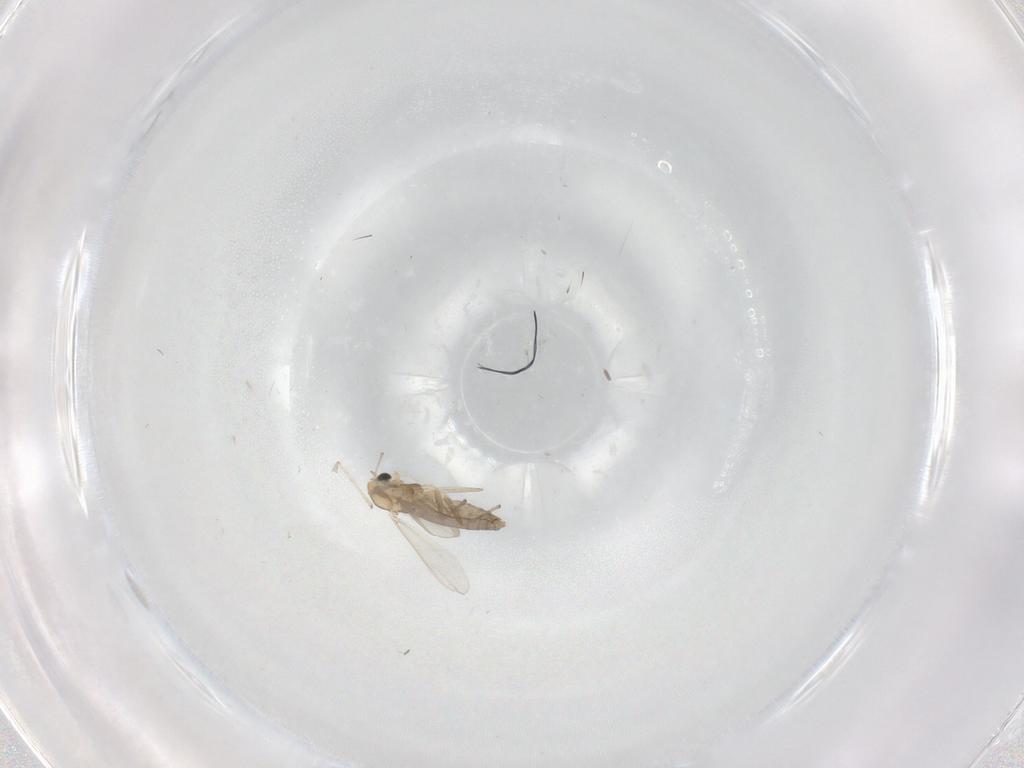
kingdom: Animalia
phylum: Arthropoda
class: Insecta
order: Diptera
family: Chironomidae
